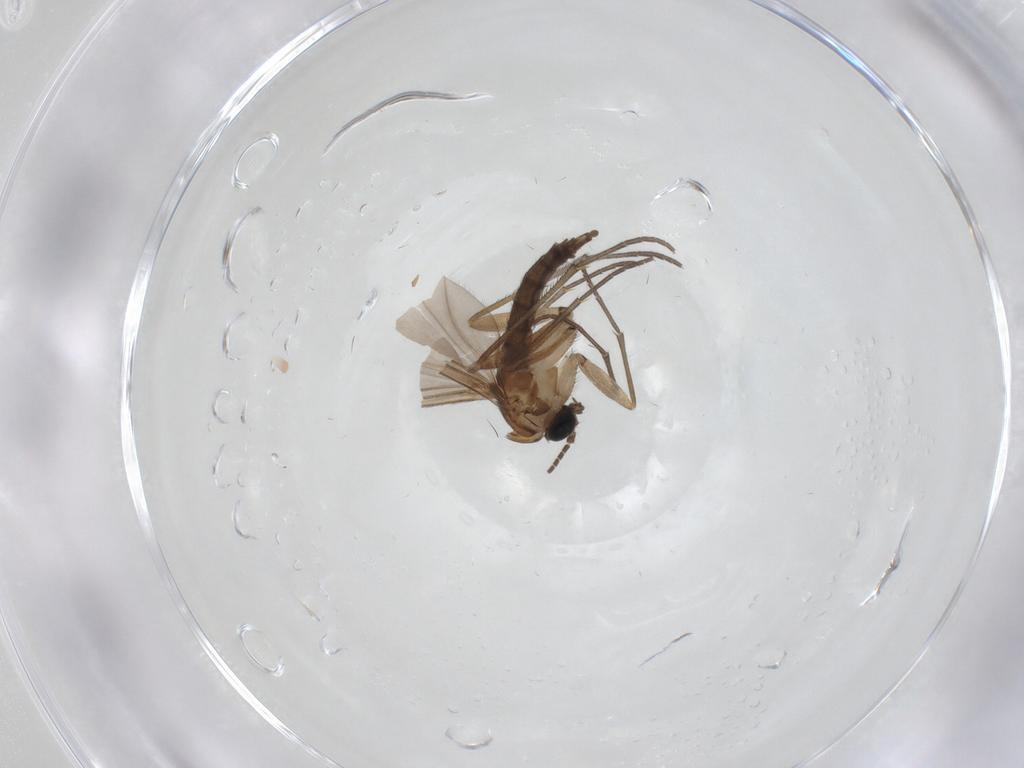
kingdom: Animalia
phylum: Arthropoda
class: Insecta
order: Diptera
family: Sciaridae
